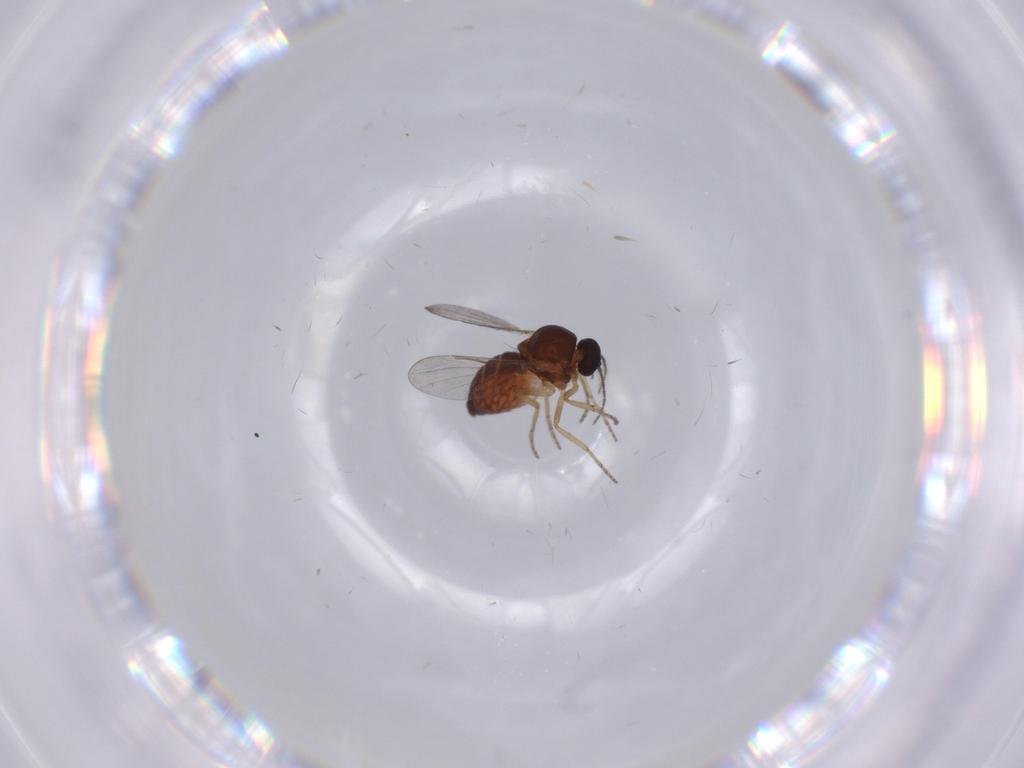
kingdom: Animalia
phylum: Arthropoda
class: Insecta
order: Diptera
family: Ceratopogonidae
